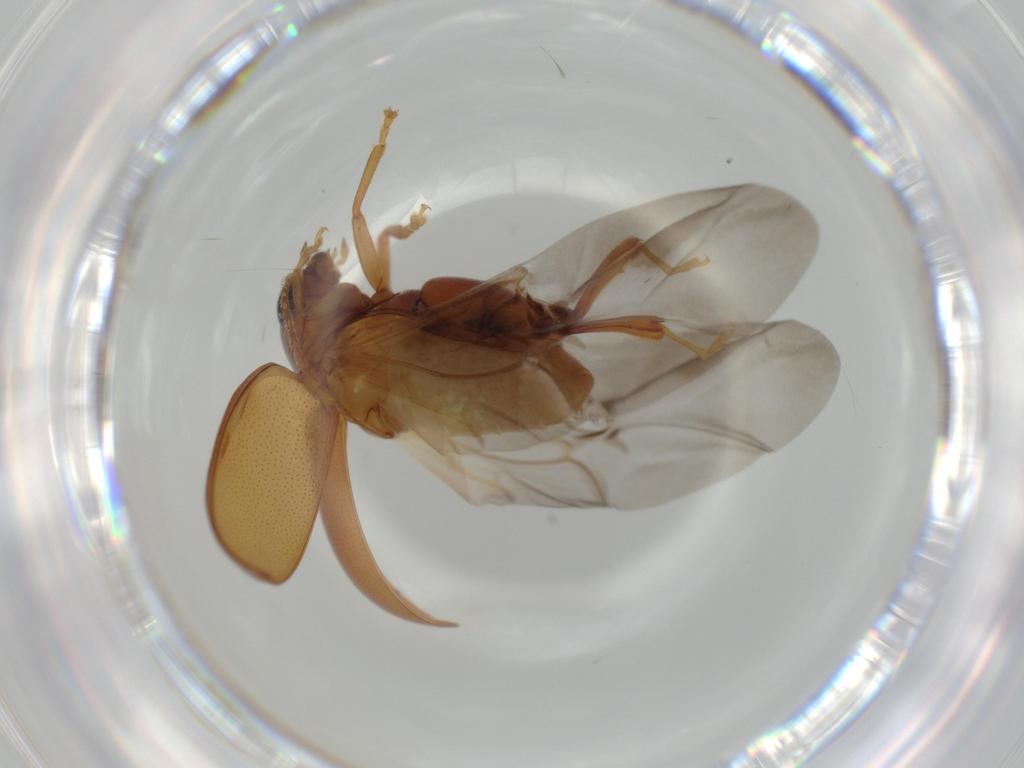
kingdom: Animalia
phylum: Arthropoda
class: Insecta
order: Coleoptera
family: Chrysomelidae
